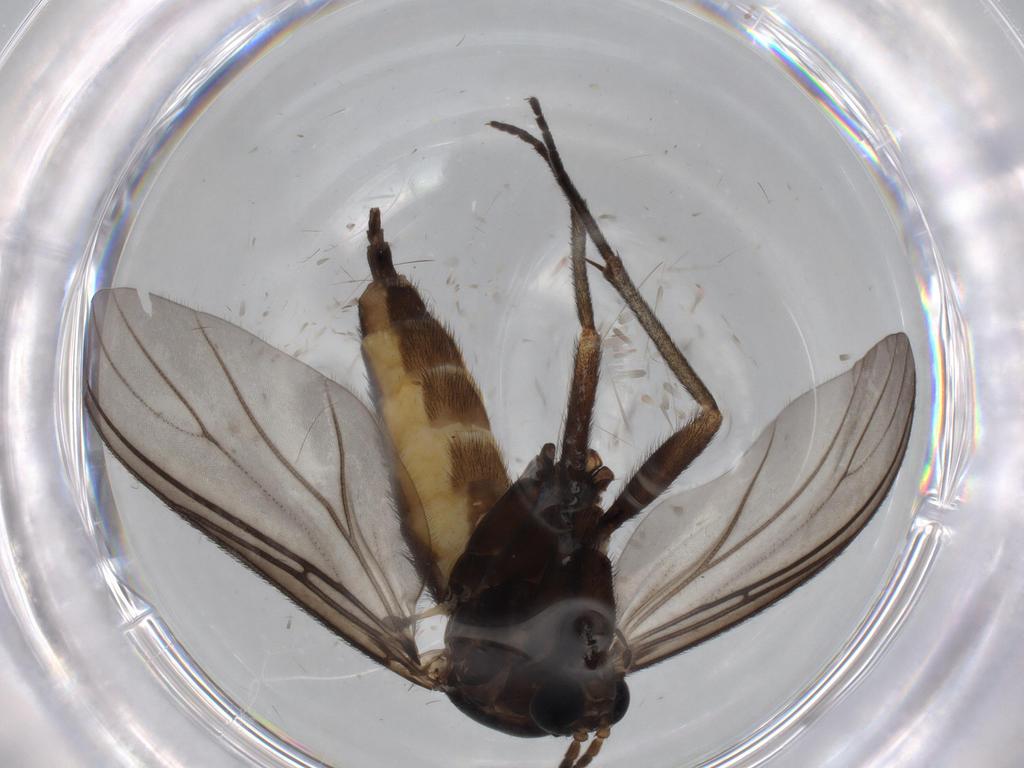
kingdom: Animalia
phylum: Arthropoda
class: Insecta
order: Diptera
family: Sciaridae
